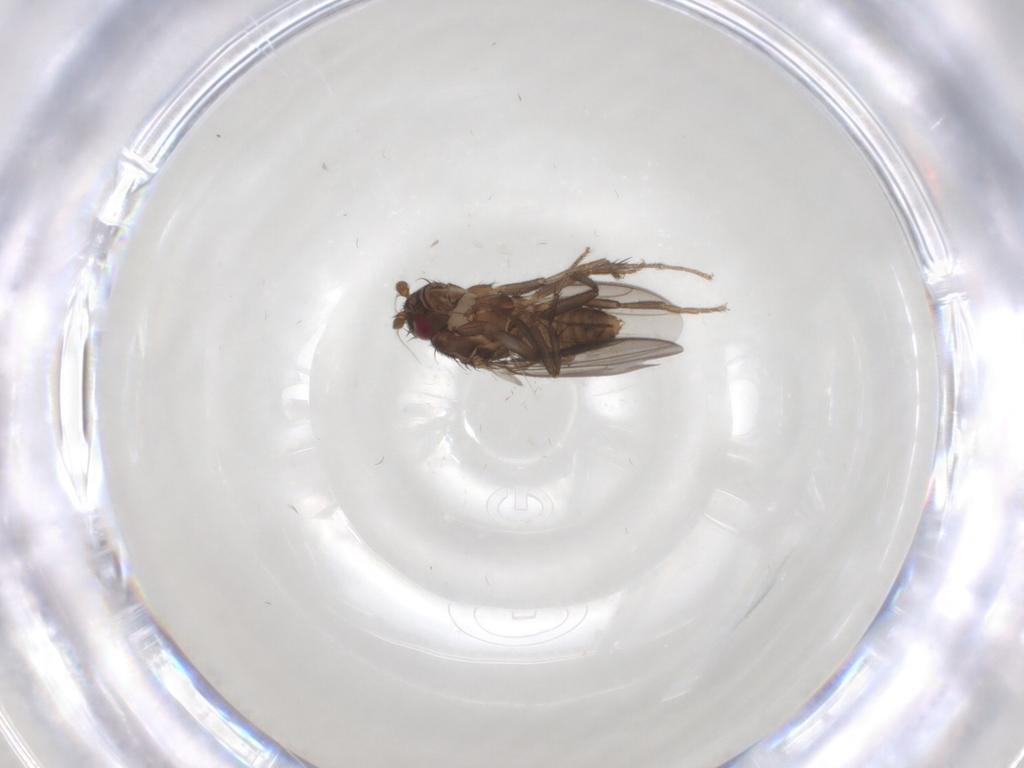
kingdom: Animalia
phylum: Arthropoda
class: Insecta
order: Diptera
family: Sphaeroceridae
